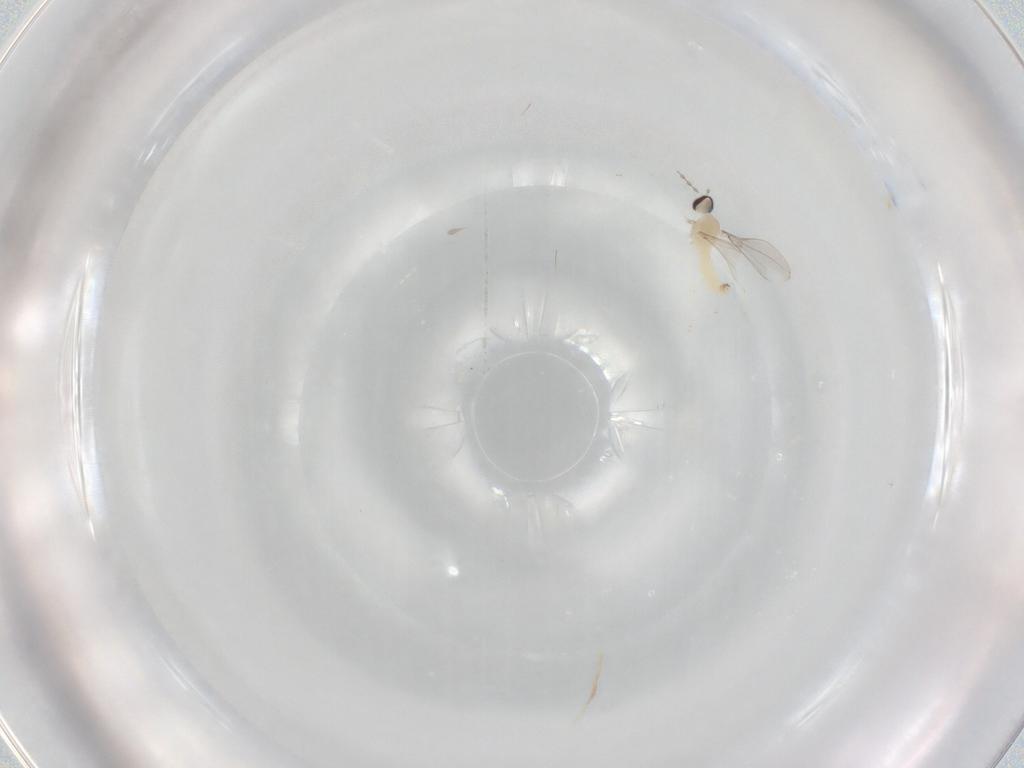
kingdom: Animalia
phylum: Arthropoda
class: Insecta
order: Diptera
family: Cecidomyiidae
